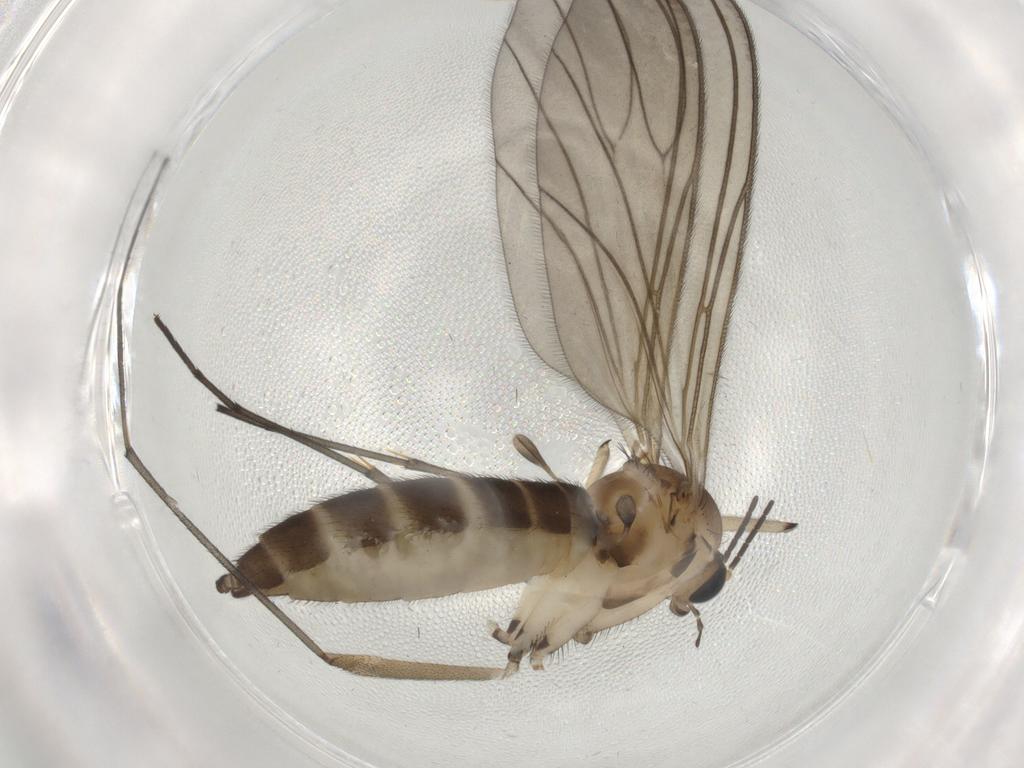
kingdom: Animalia
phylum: Arthropoda
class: Insecta
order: Diptera
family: Sciaridae
